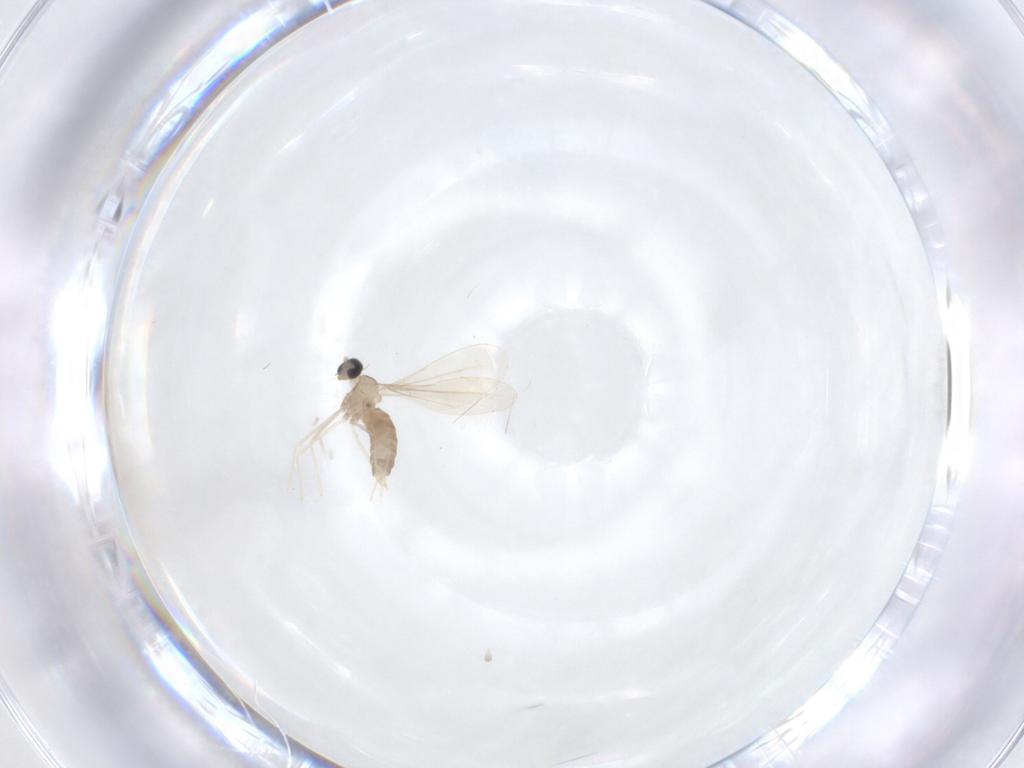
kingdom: Animalia
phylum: Arthropoda
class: Insecta
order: Diptera
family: Cecidomyiidae
